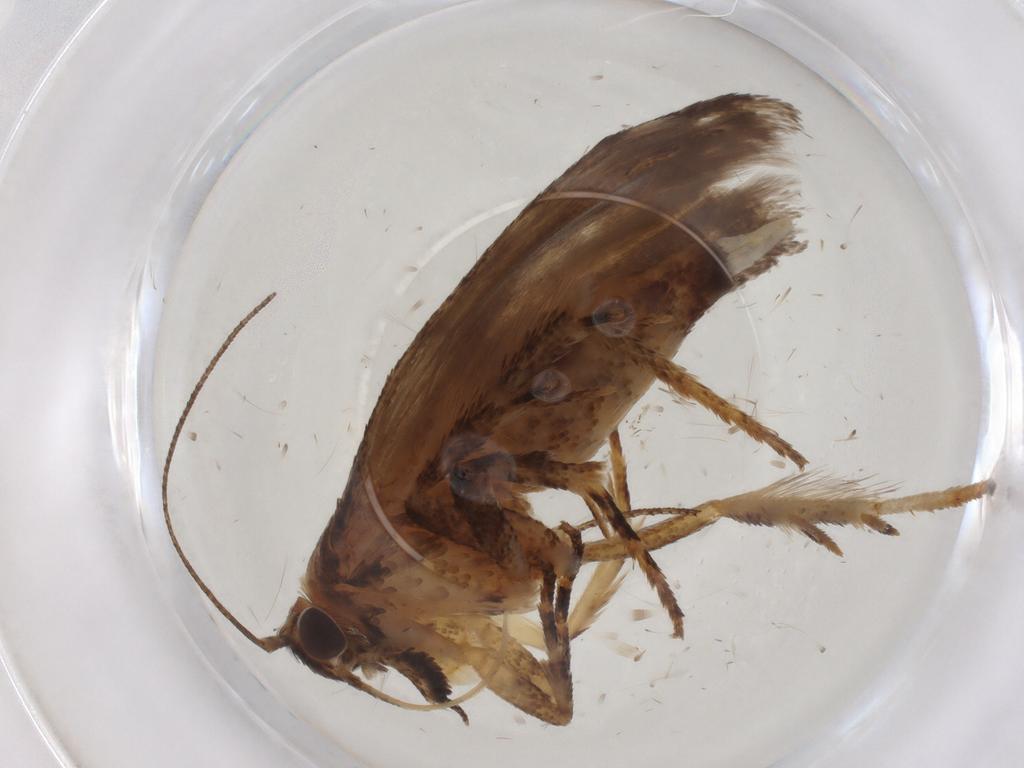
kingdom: Animalia
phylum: Arthropoda
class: Insecta
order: Lepidoptera
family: Gelechiidae
